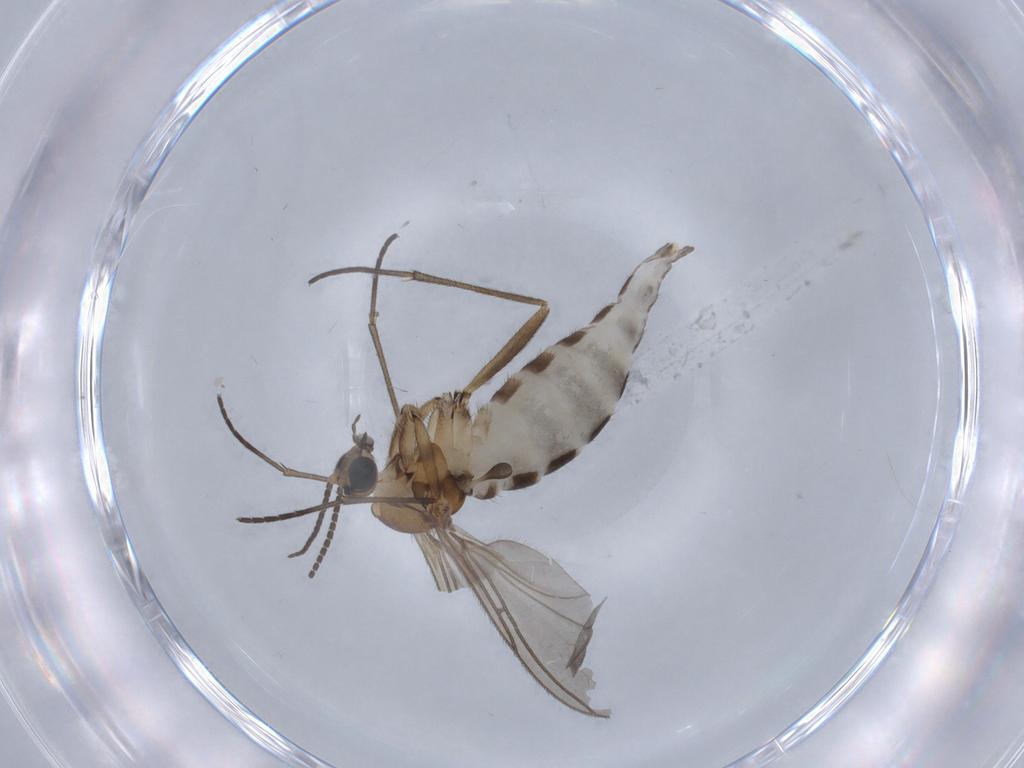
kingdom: Animalia
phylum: Arthropoda
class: Insecta
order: Diptera
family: Sciaridae
